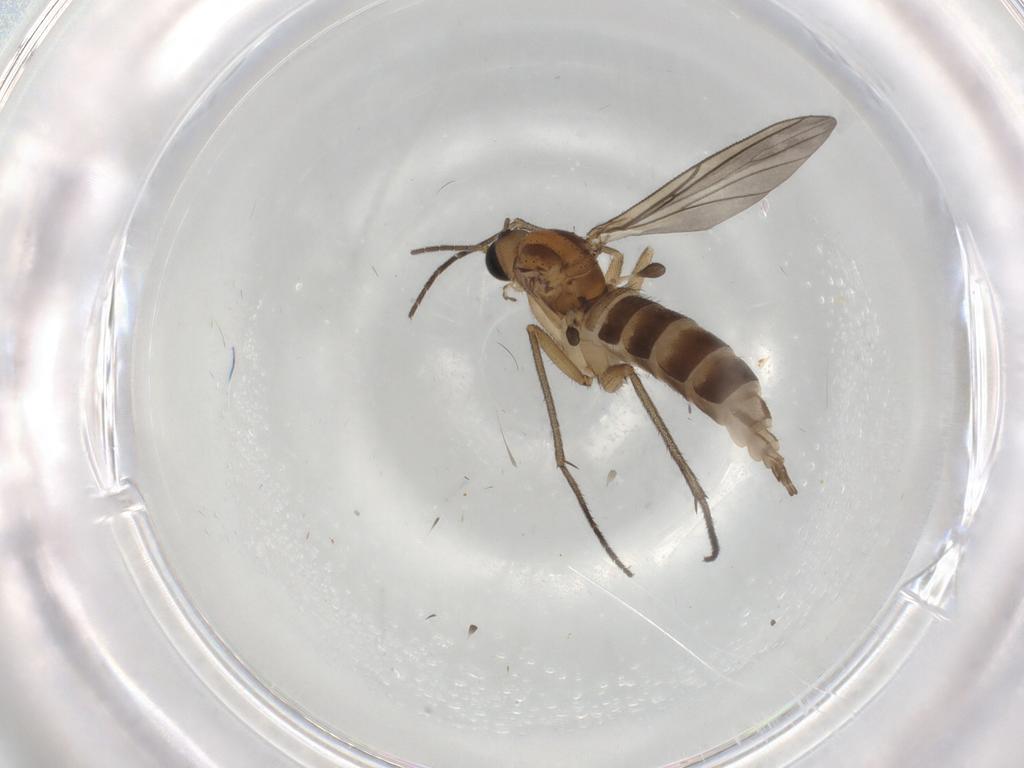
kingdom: Animalia
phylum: Arthropoda
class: Insecta
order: Diptera
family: Sciaridae
